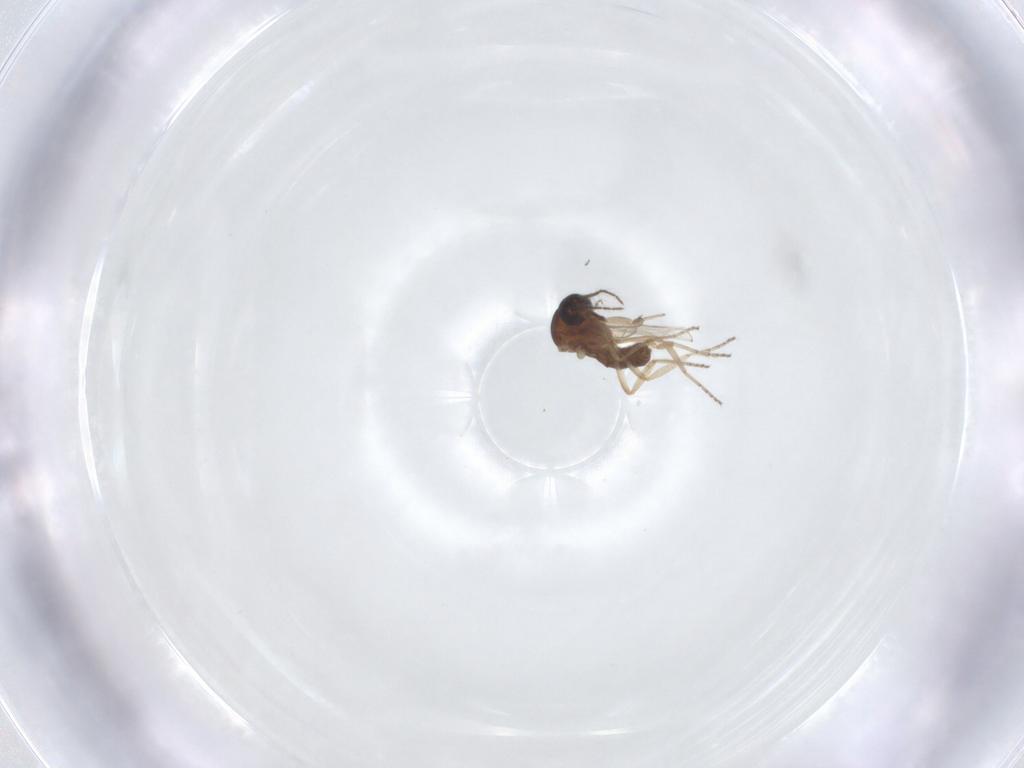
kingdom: Animalia
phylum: Arthropoda
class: Insecta
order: Diptera
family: Ceratopogonidae
